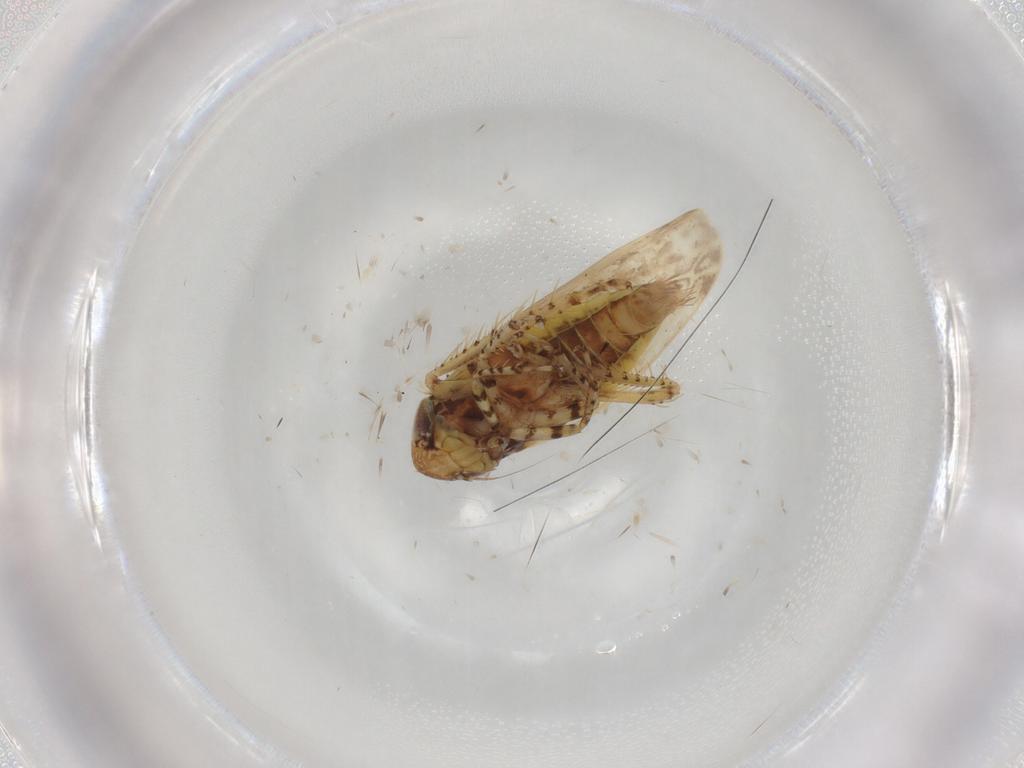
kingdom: Animalia
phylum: Arthropoda
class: Insecta
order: Hemiptera
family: Cicadellidae
